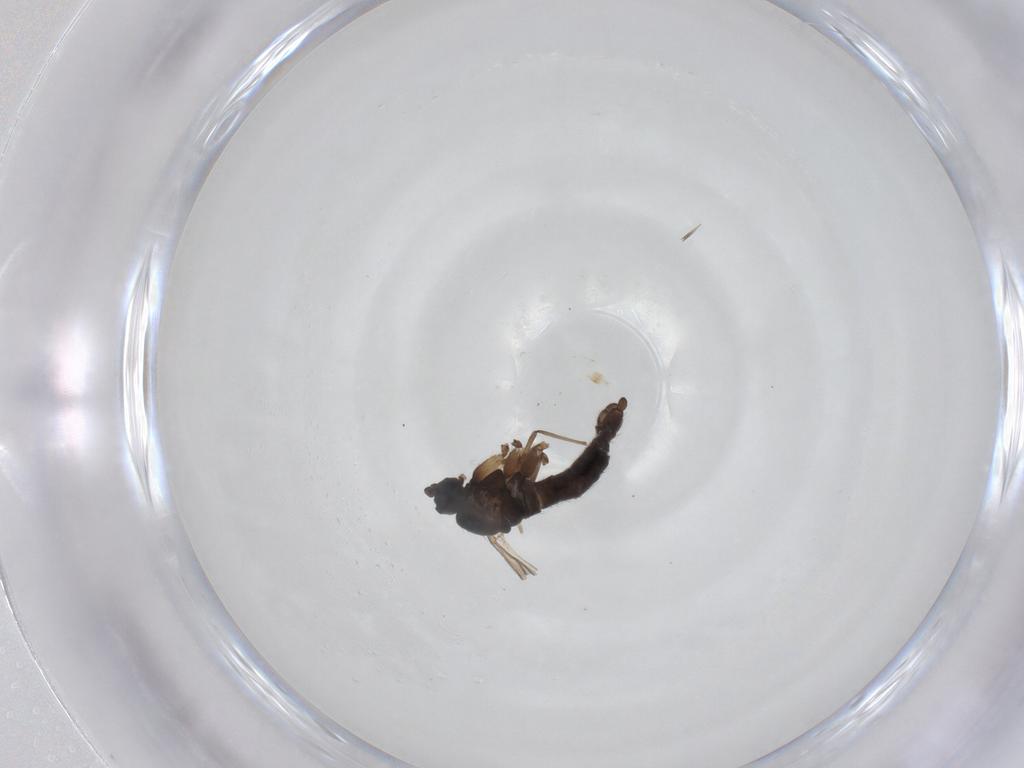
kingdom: Animalia
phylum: Arthropoda
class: Insecta
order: Diptera
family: Sciaridae
